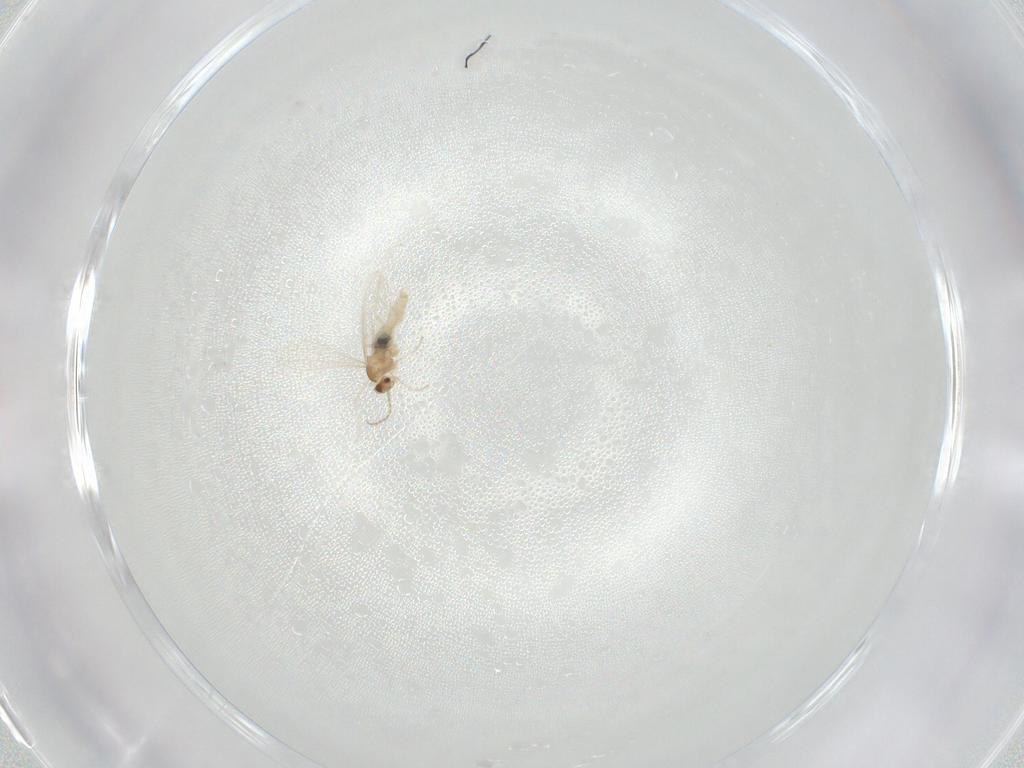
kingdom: Animalia
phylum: Arthropoda
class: Insecta
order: Diptera
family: Cecidomyiidae
